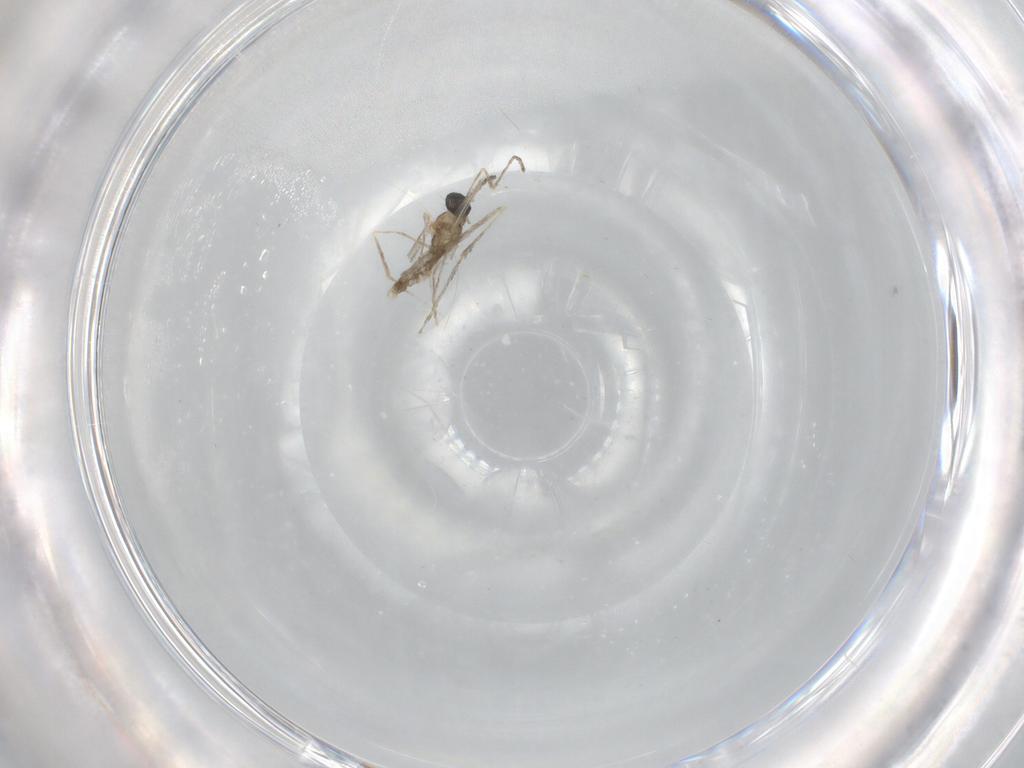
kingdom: Animalia
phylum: Arthropoda
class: Insecta
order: Diptera
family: Cecidomyiidae
